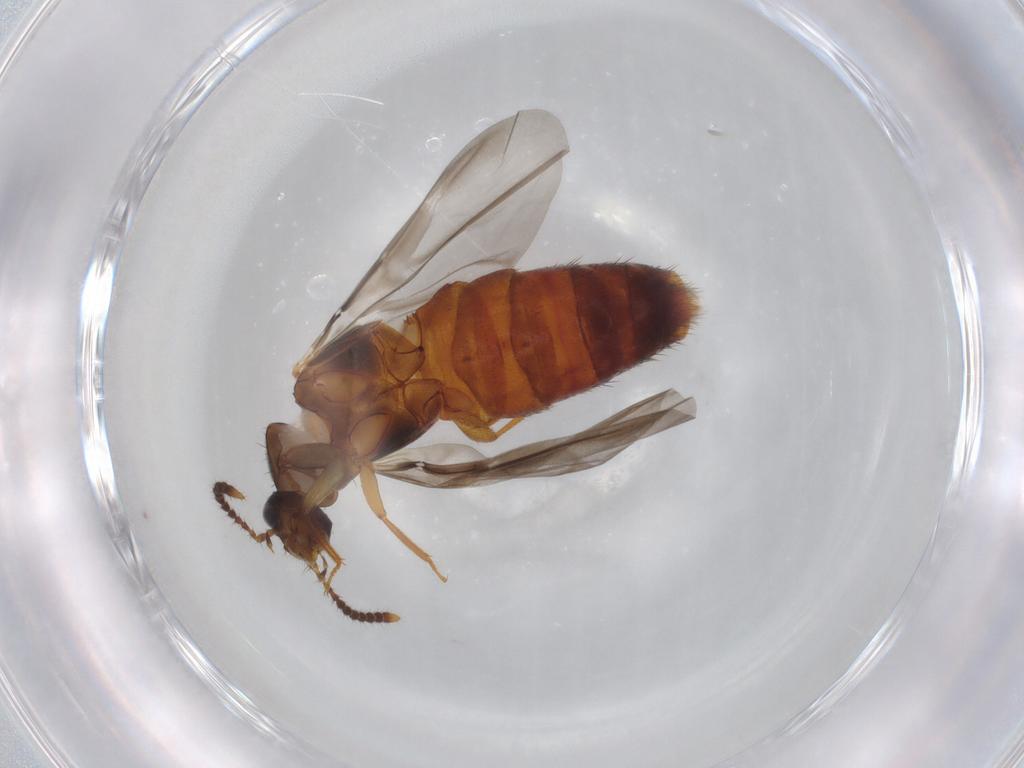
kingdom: Animalia
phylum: Arthropoda
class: Insecta
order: Coleoptera
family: Staphylinidae
